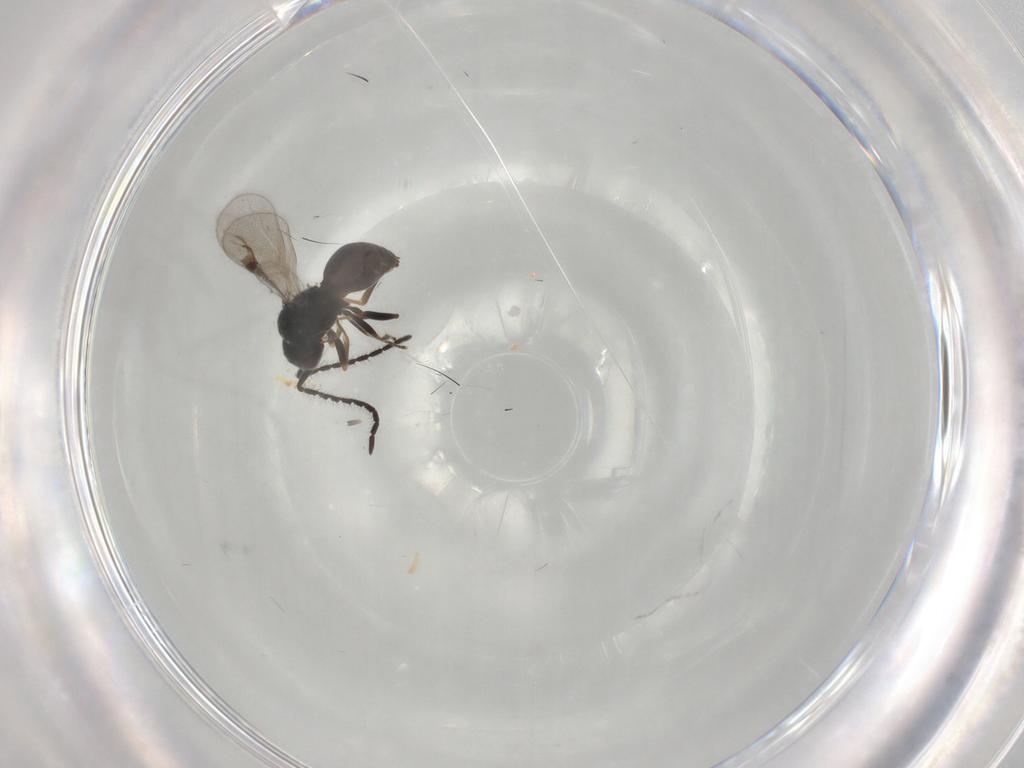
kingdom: Animalia
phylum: Arthropoda
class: Insecta
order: Hymenoptera
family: Megaspilidae
